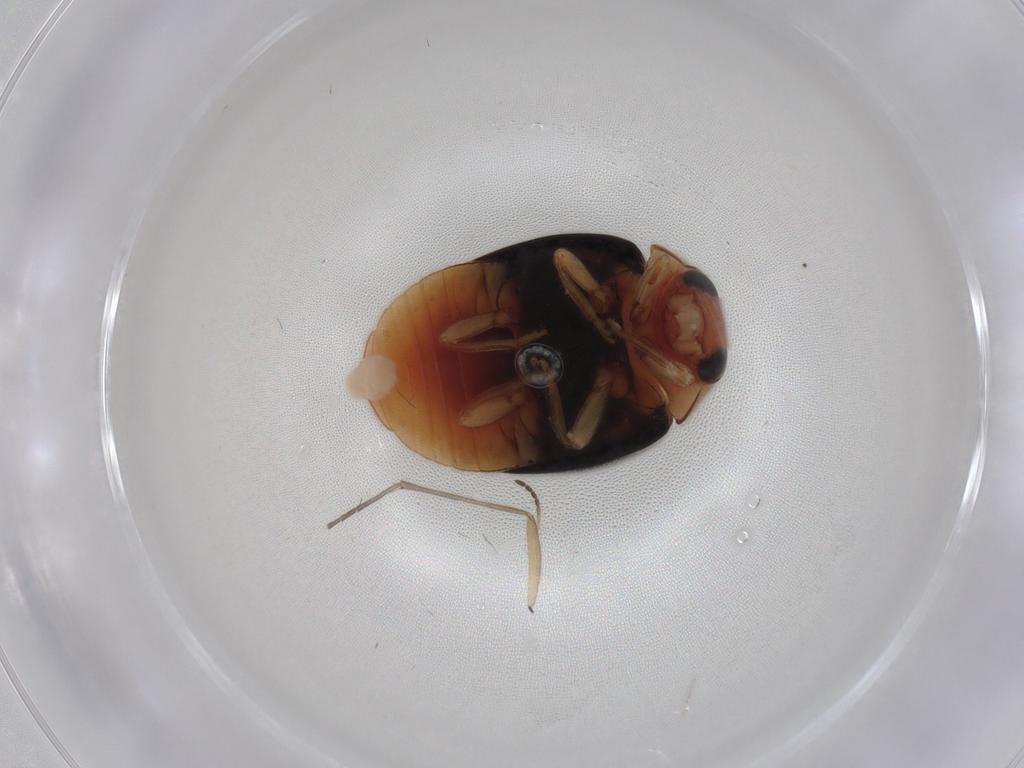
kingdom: Animalia
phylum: Arthropoda
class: Insecta
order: Coleoptera
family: Coccinellidae
